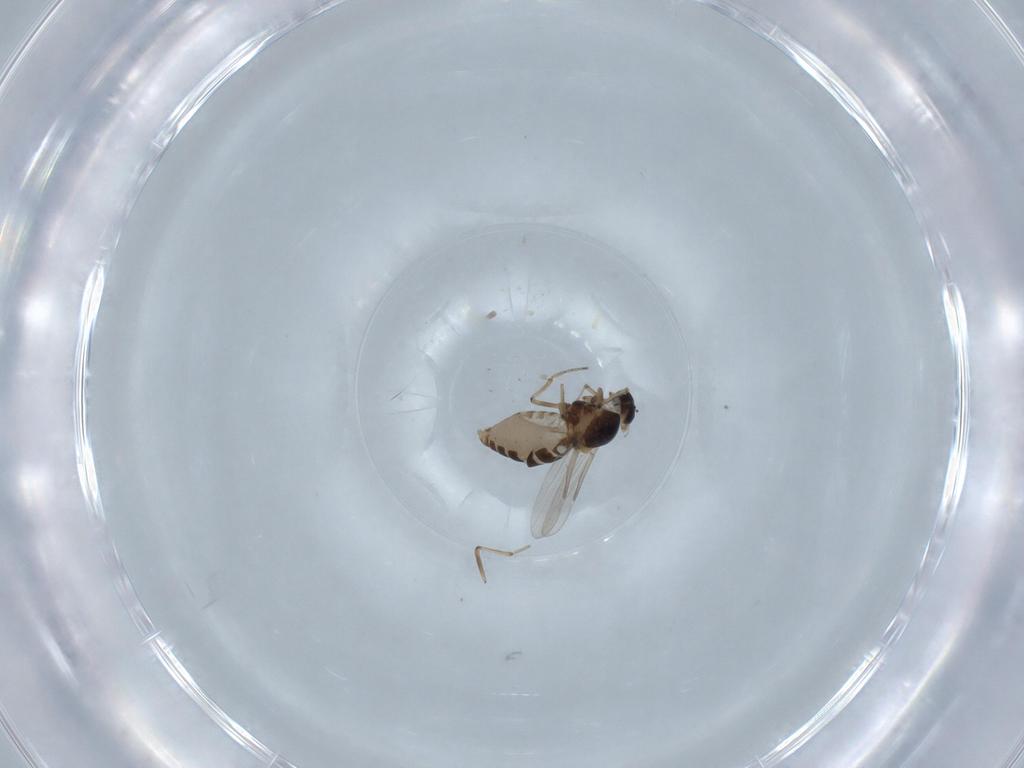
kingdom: Animalia
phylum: Arthropoda
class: Insecta
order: Diptera
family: Ceratopogonidae
